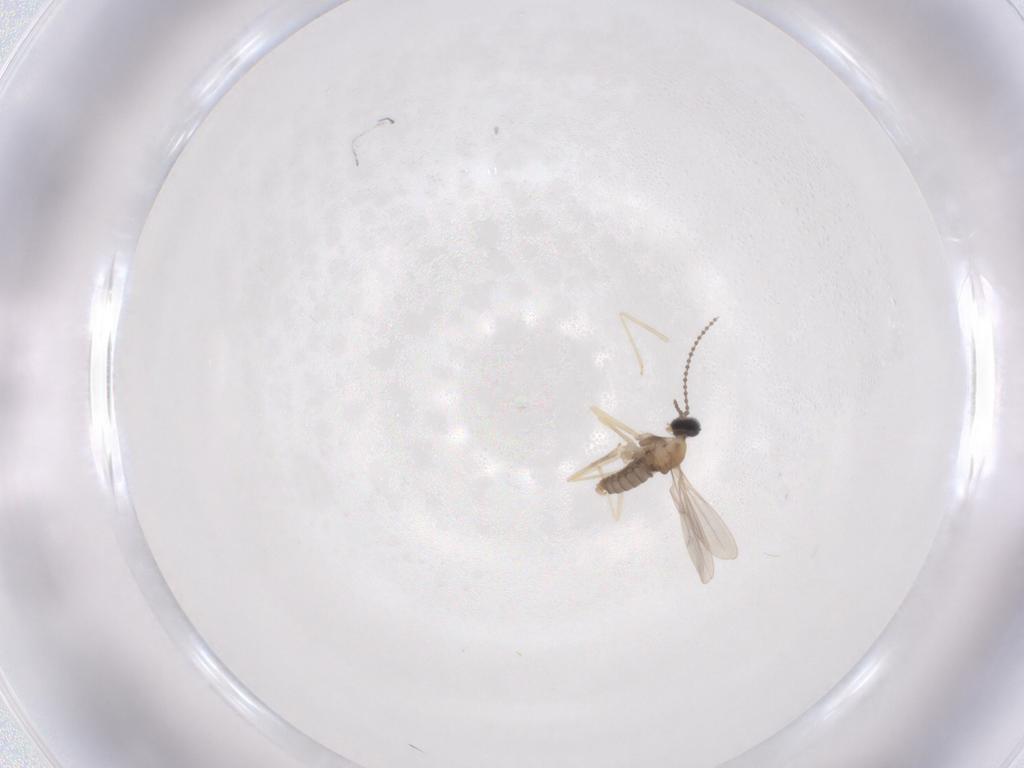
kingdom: Animalia
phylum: Arthropoda
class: Insecta
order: Diptera
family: Cecidomyiidae
